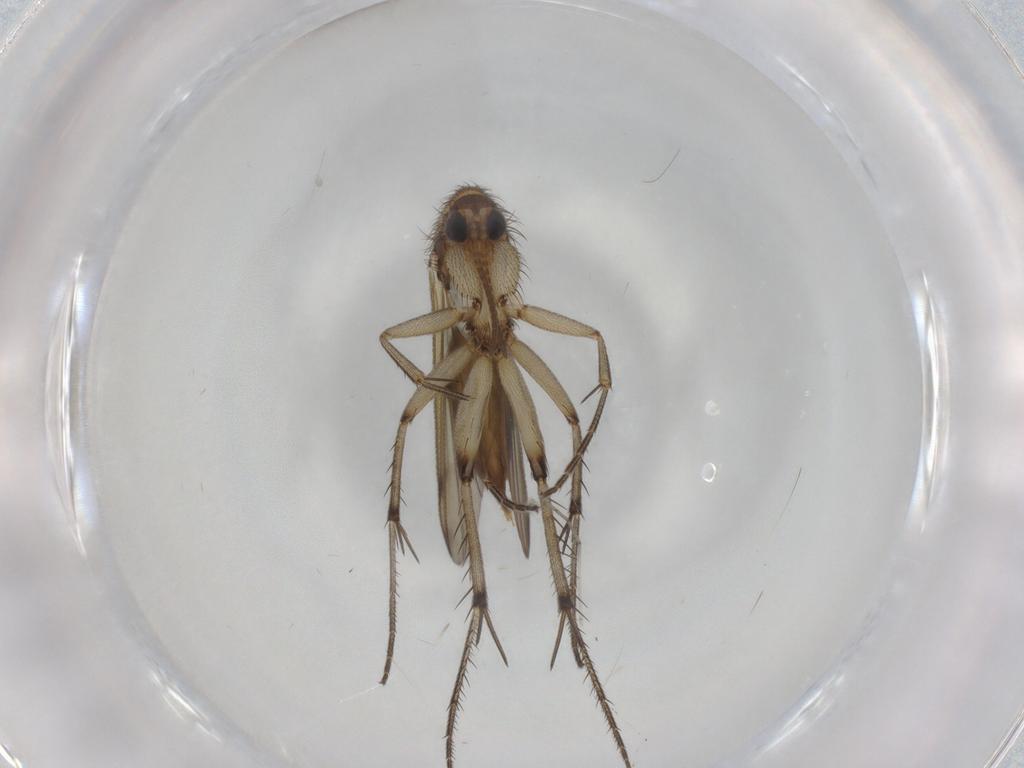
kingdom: Animalia
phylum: Arthropoda
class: Insecta
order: Diptera
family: Mycetophilidae
